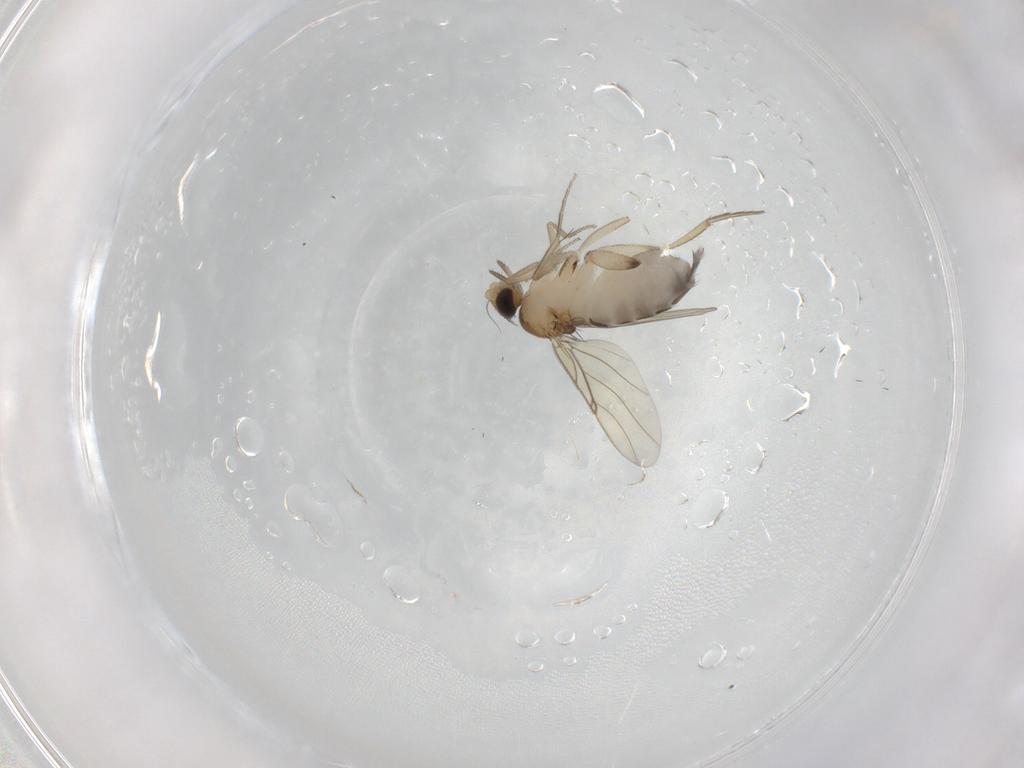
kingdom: Animalia
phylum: Arthropoda
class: Insecta
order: Diptera
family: Phoridae
